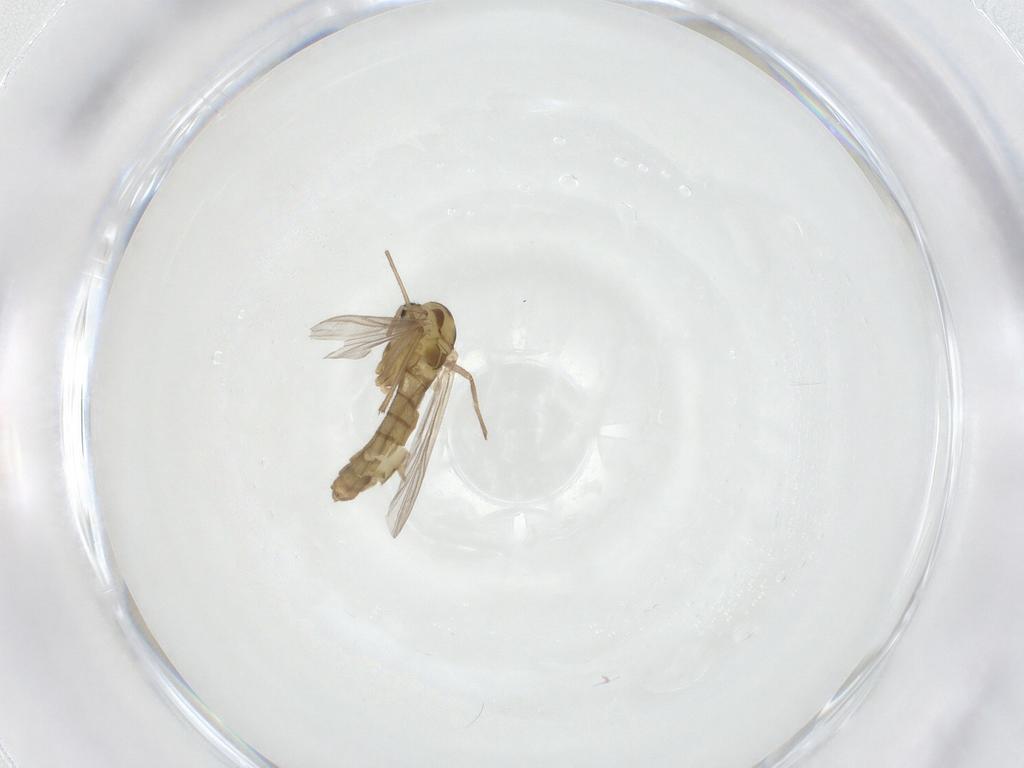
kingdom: Animalia
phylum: Arthropoda
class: Insecta
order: Diptera
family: Chironomidae
